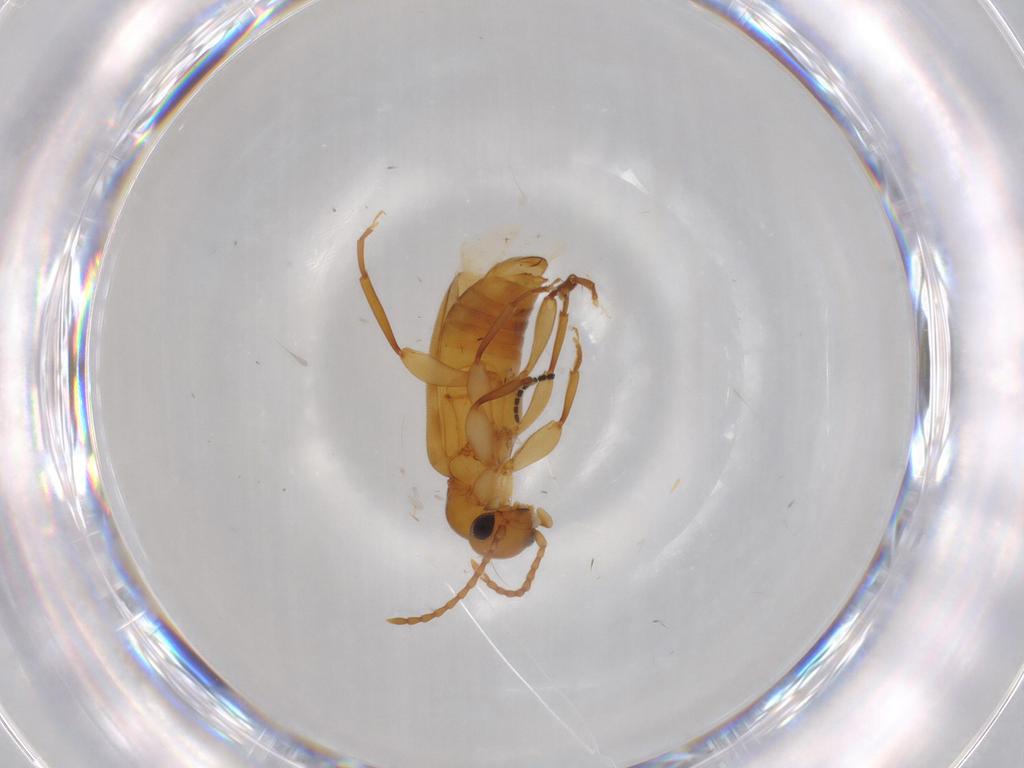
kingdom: Animalia
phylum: Arthropoda
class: Insecta
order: Coleoptera
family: Anthicidae
